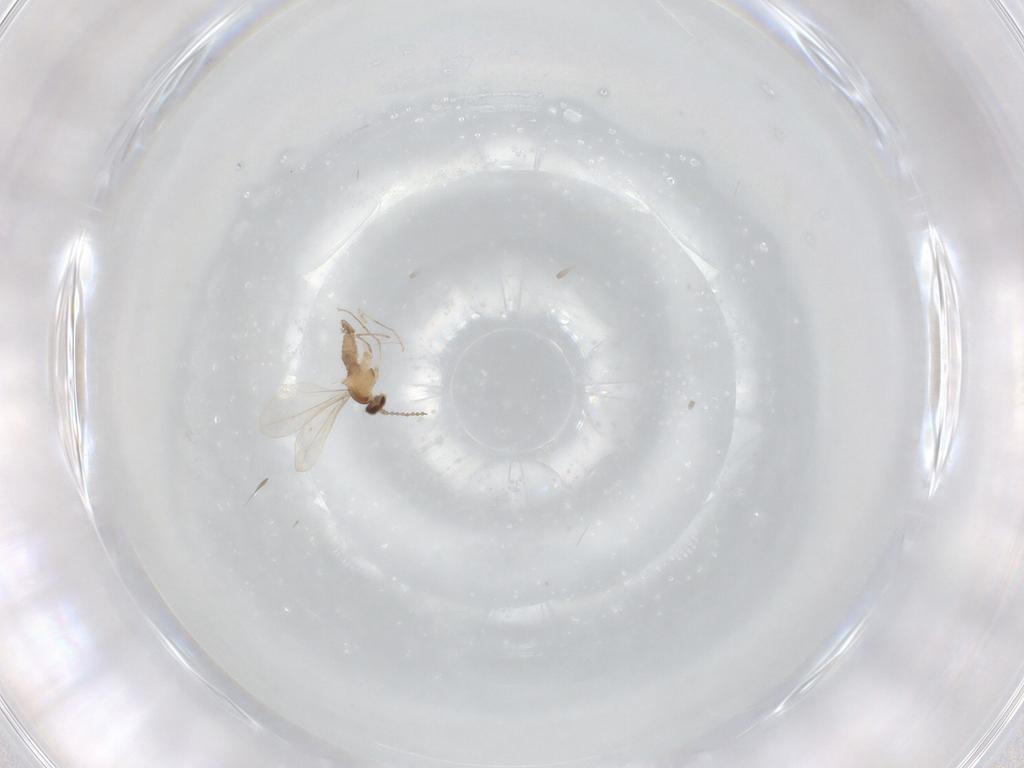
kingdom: Animalia
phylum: Arthropoda
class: Insecta
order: Diptera
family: Cecidomyiidae
